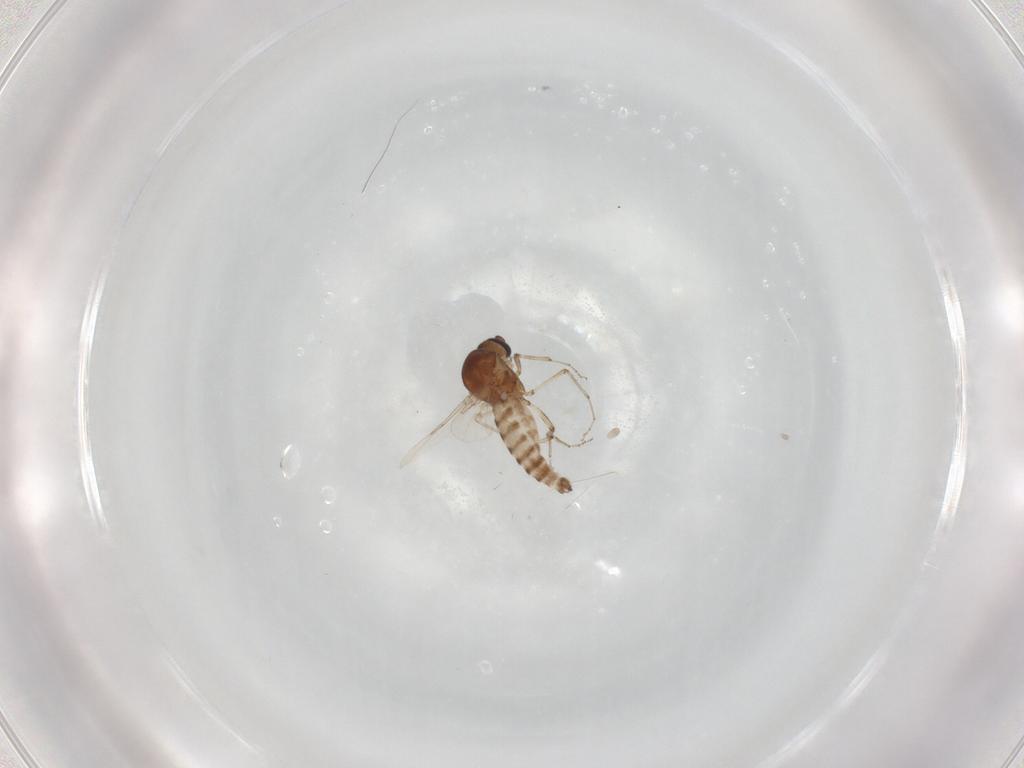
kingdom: Animalia
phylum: Arthropoda
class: Insecta
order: Diptera
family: Ceratopogonidae
